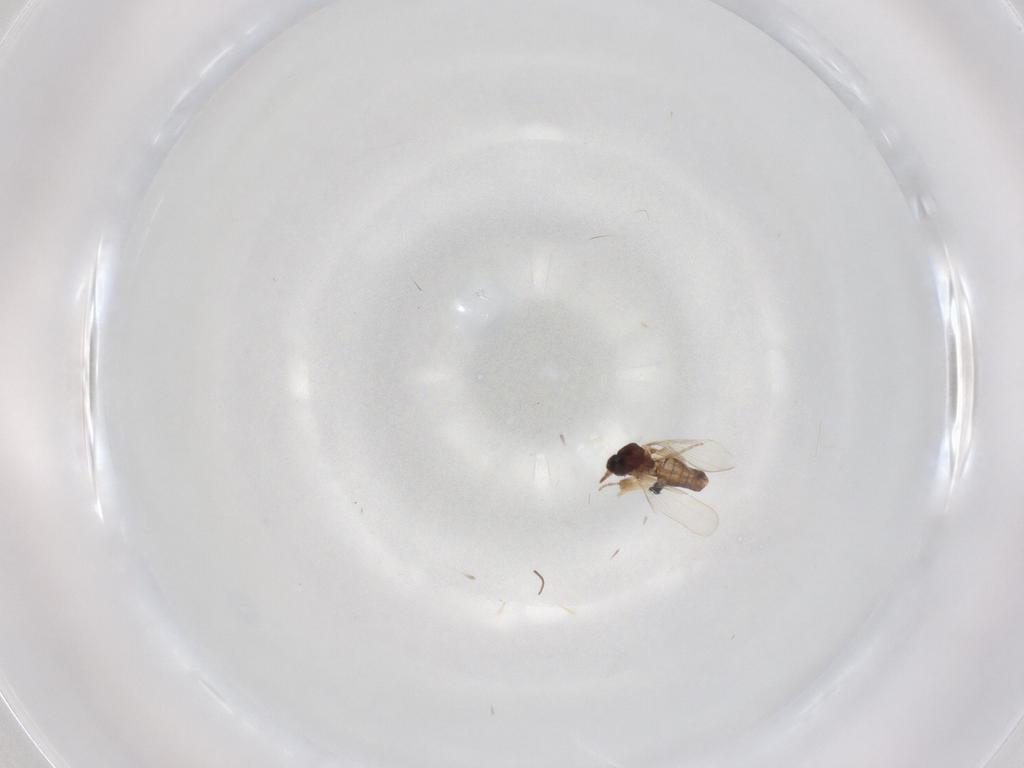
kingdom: Animalia
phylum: Arthropoda
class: Insecta
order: Diptera
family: Ceratopogonidae
